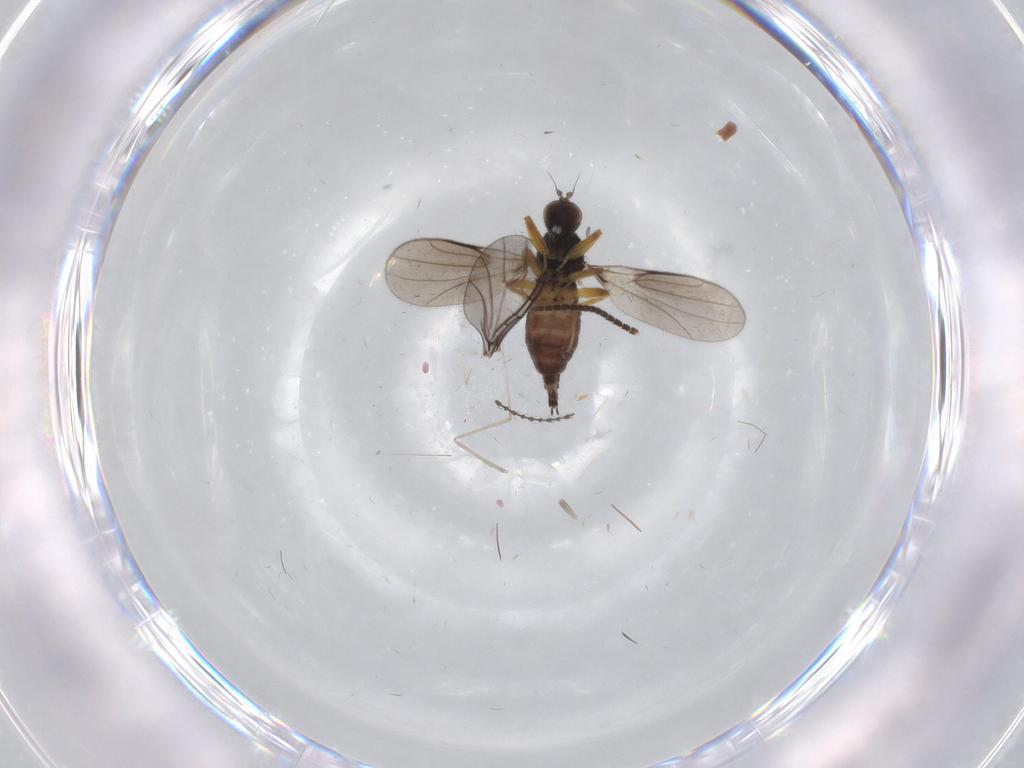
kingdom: Animalia
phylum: Arthropoda
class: Insecta
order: Diptera
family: Hybotidae
